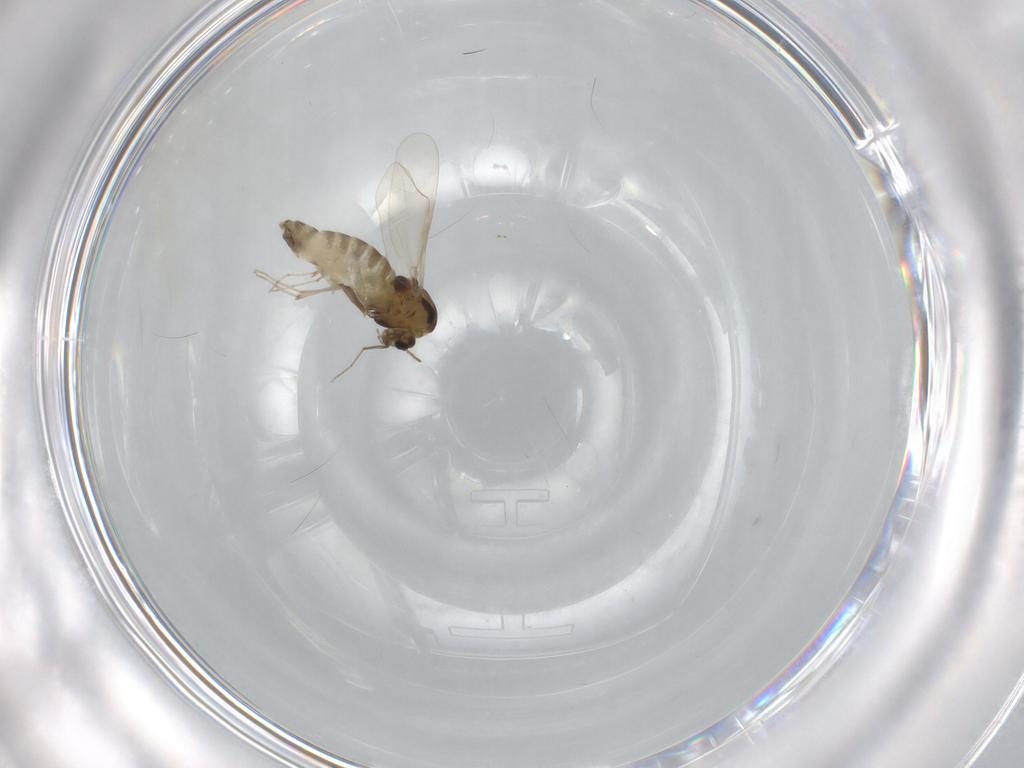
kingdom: Animalia
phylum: Arthropoda
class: Insecta
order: Diptera
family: Chironomidae
